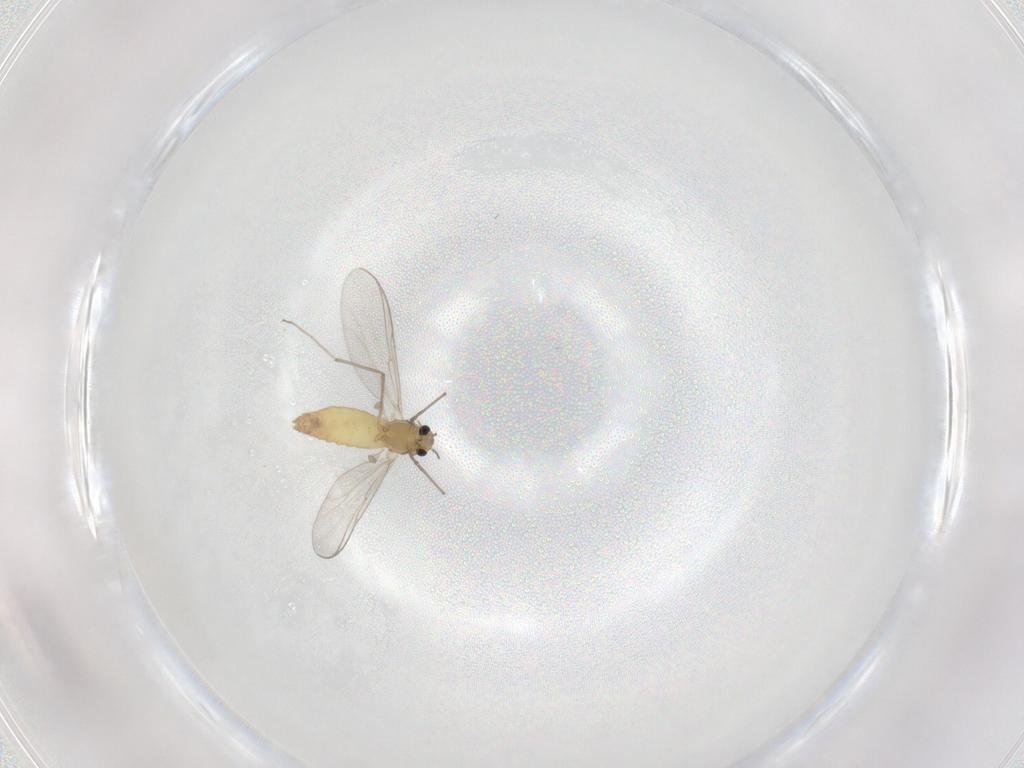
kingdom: Animalia
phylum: Arthropoda
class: Insecta
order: Diptera
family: Chironomidae
